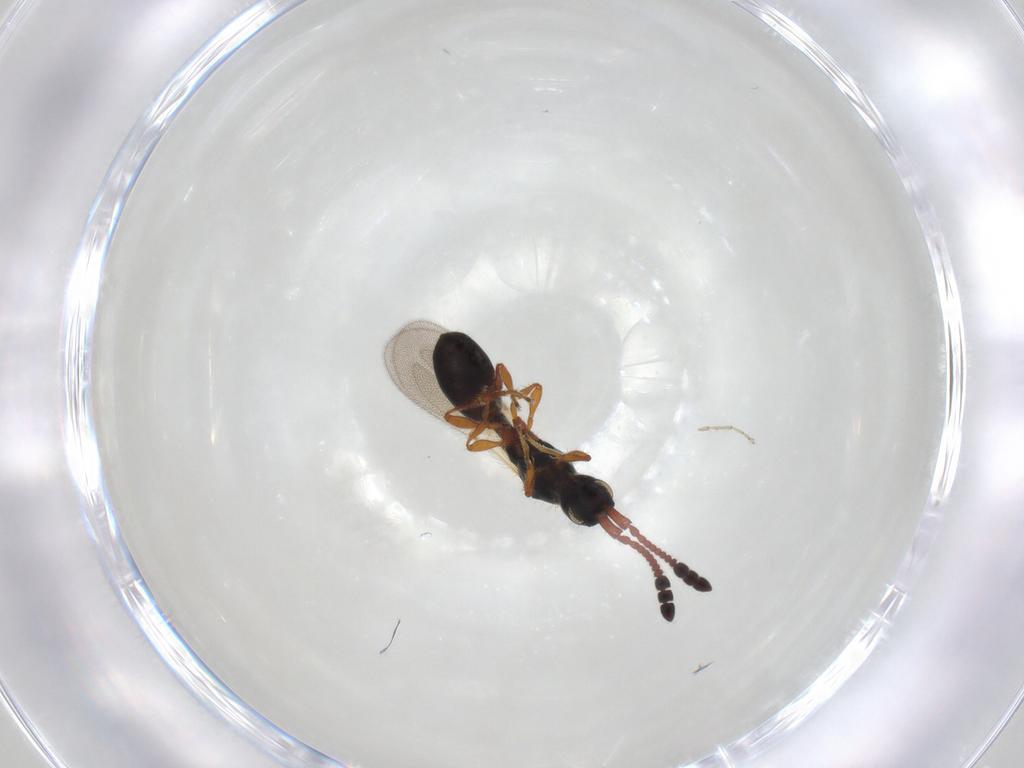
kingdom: Animalia
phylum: Arthropoda
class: Insecta
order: Hymenoptera
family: Diapriidae
